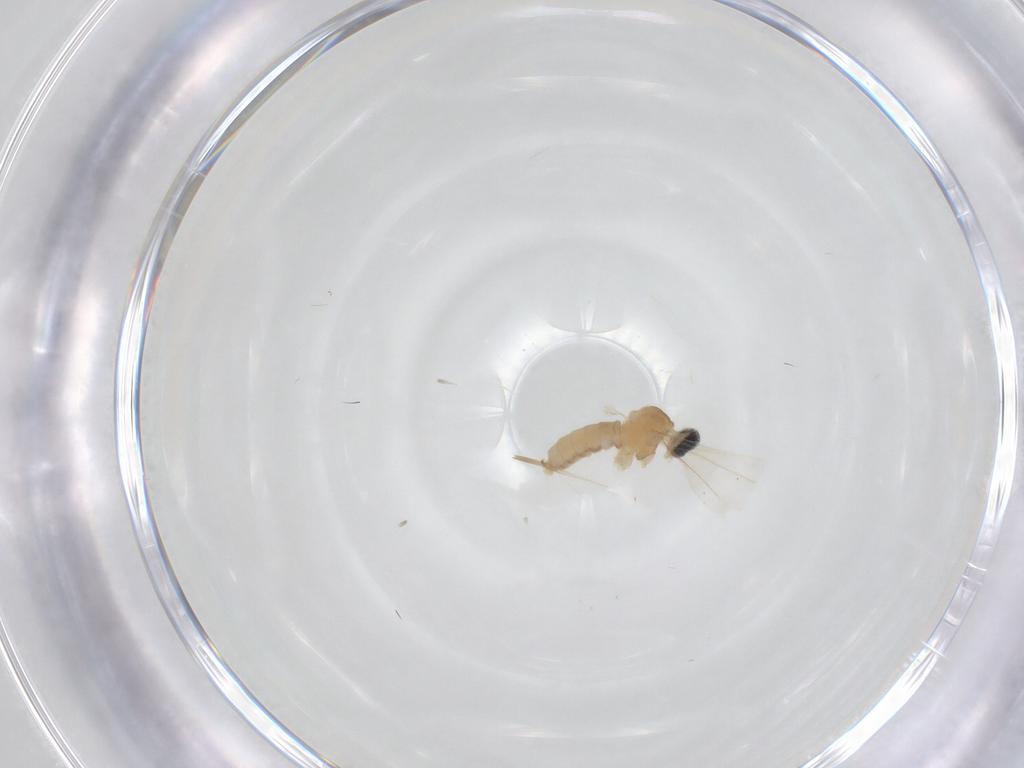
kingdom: Animalia
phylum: Arthropoda
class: Insecta
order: Diptera
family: Cecidomyiidae
